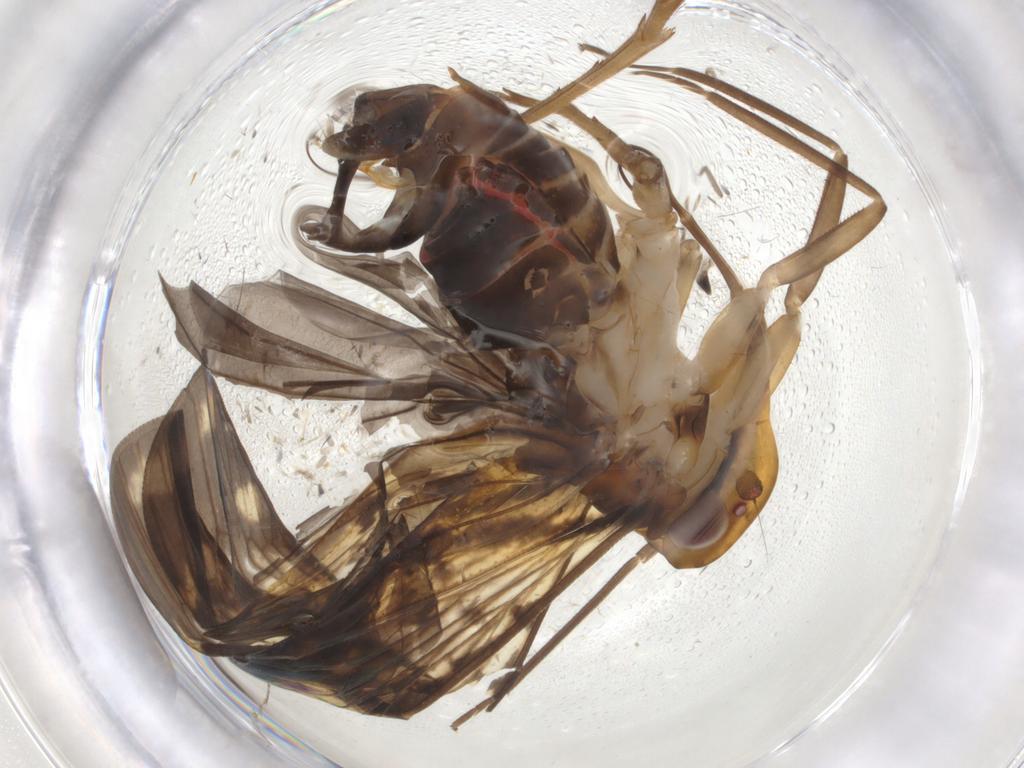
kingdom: Animalia
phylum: Arthropoda
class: Insecta
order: Hemiptera
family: Cixiidae
